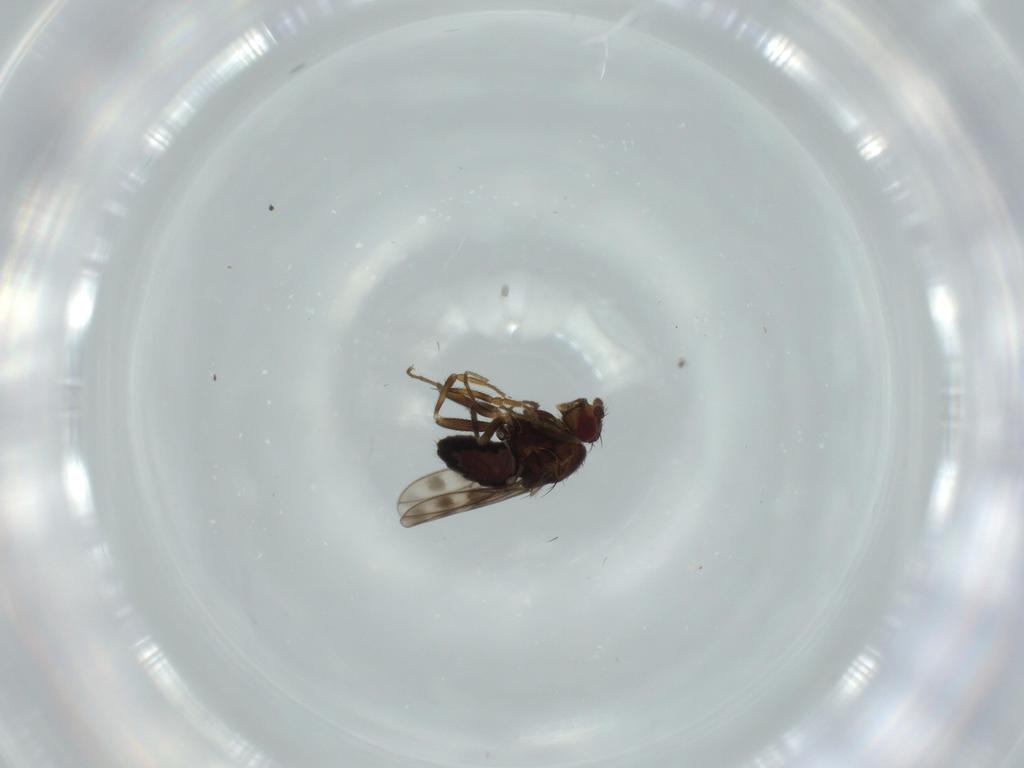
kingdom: Animalia
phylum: Arthropoda
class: Insecta
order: Diptera
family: Sphaeroceridae
